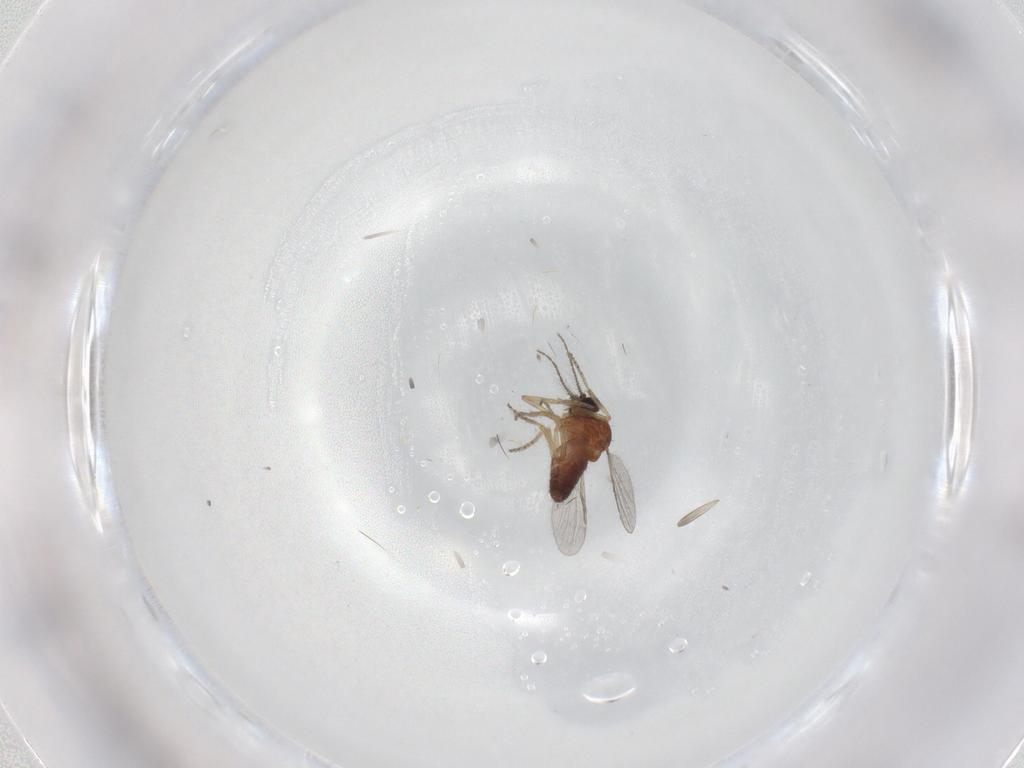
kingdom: Animalia
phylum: Arthropoda
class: Insecta
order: Diptera
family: Ceratopogonidae
